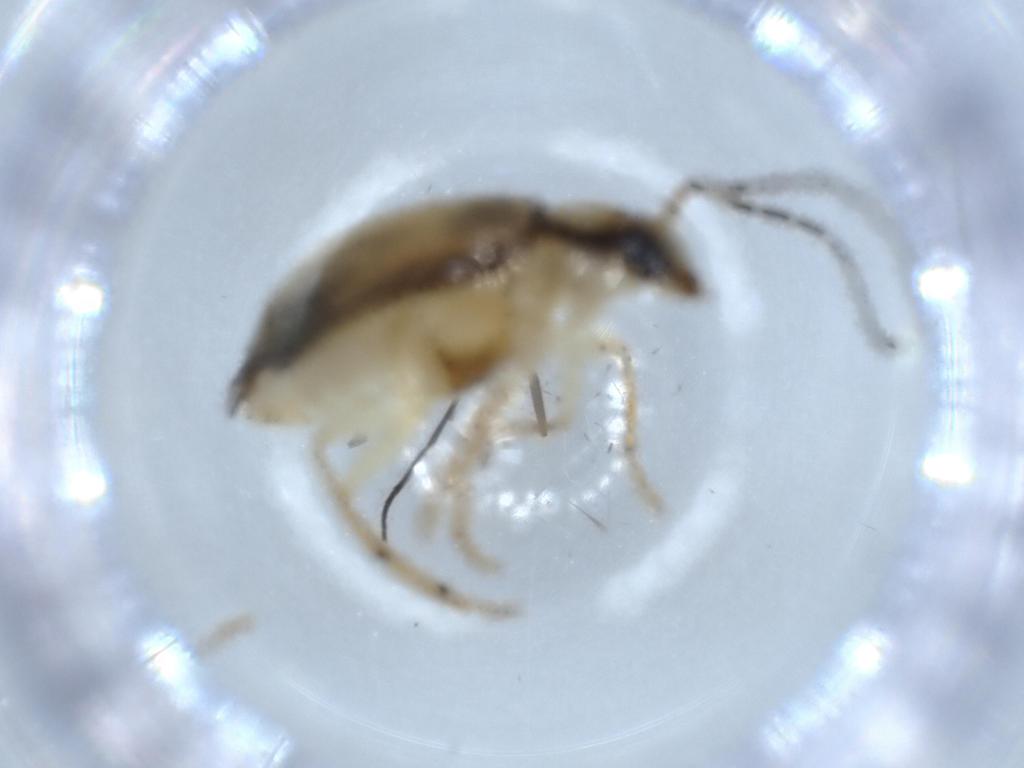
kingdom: Animalia
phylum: Arthropoda
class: Insecta
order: Coleoptera
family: Chrysomelidae
